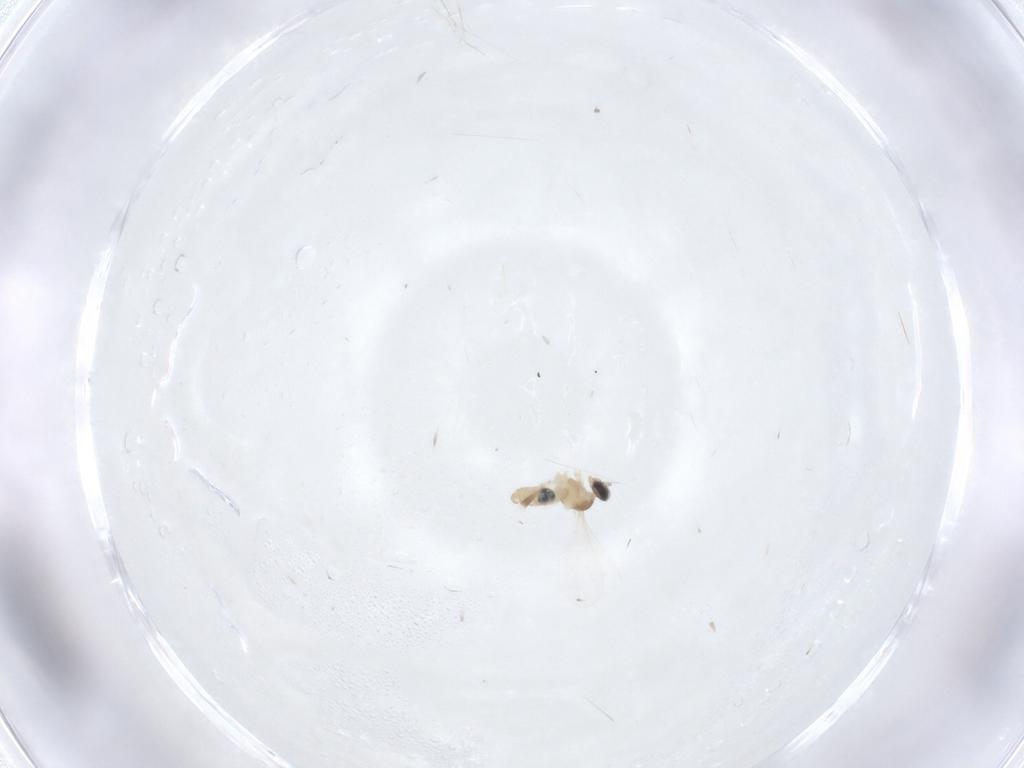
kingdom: Animalia
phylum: Arthropoda
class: Insecta
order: Diptera
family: Cecidomyiidae
